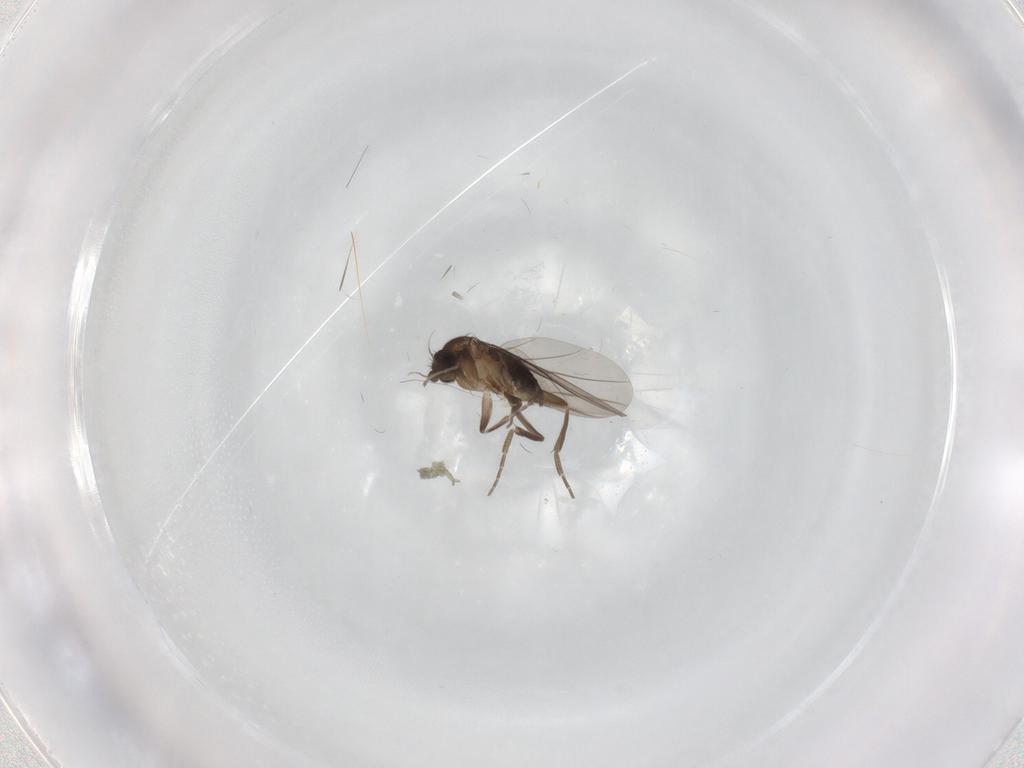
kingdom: Animalia
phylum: Arthropoda
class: Insecta
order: Diptera
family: Phoridae
